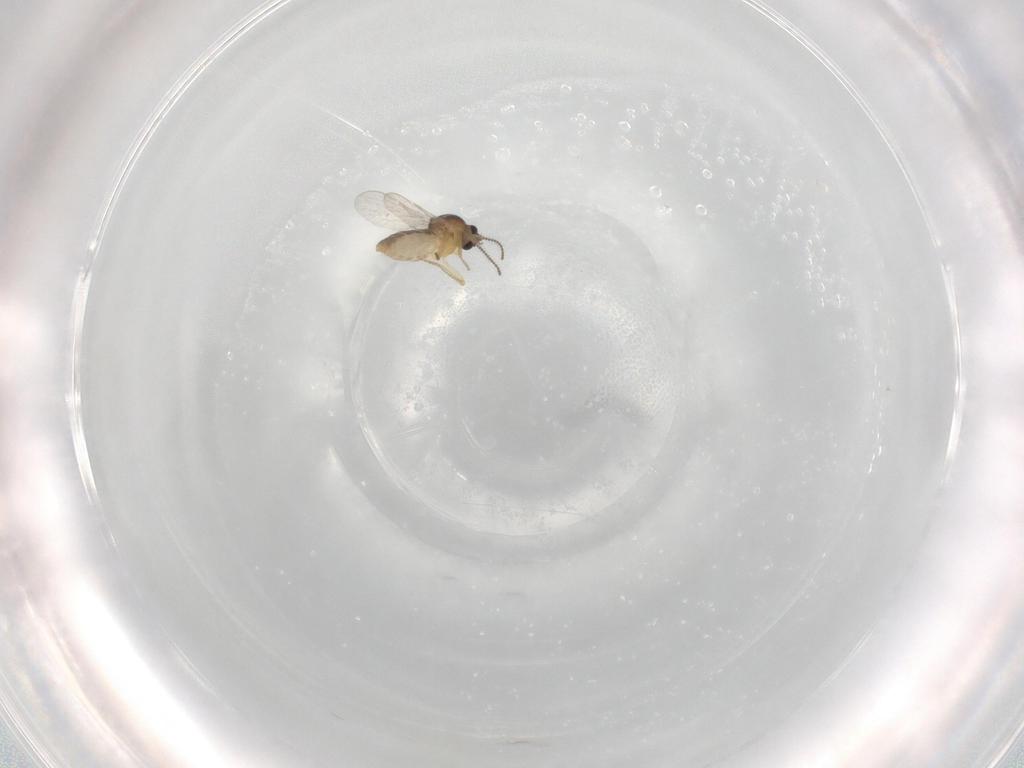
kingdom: Animalia
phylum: Arthropoda
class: Insecta
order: Diptera
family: Ceratopogonidae
